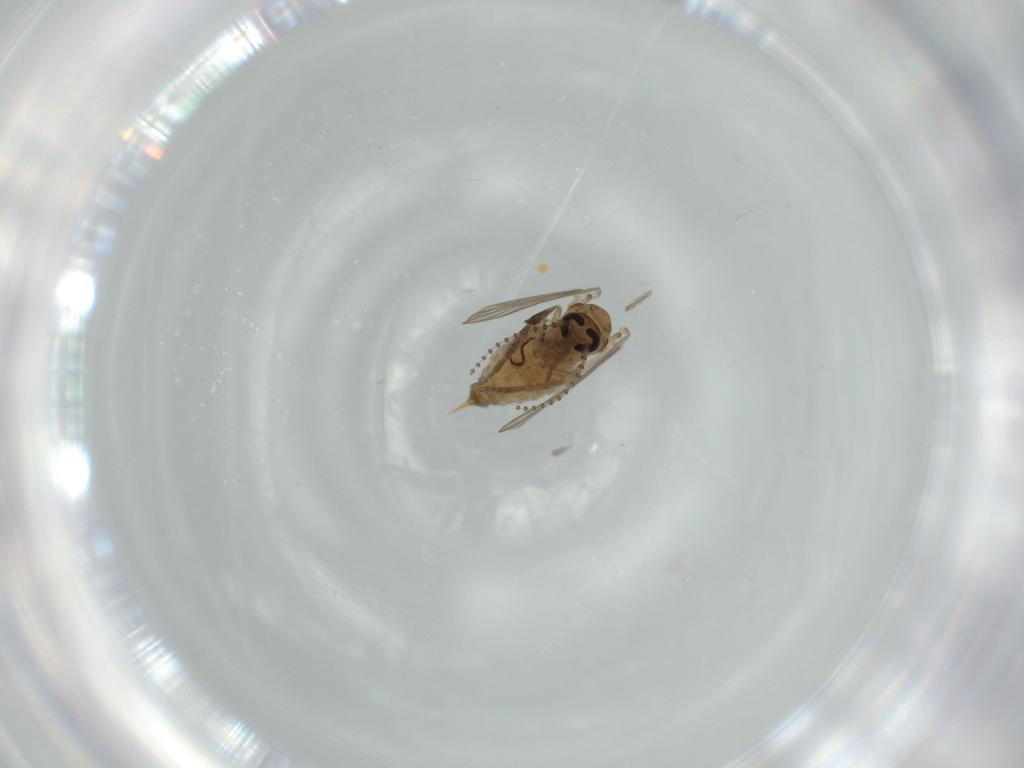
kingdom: Animalia
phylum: Arthropoda
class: Insecta
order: Diptera
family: Psychodidae
